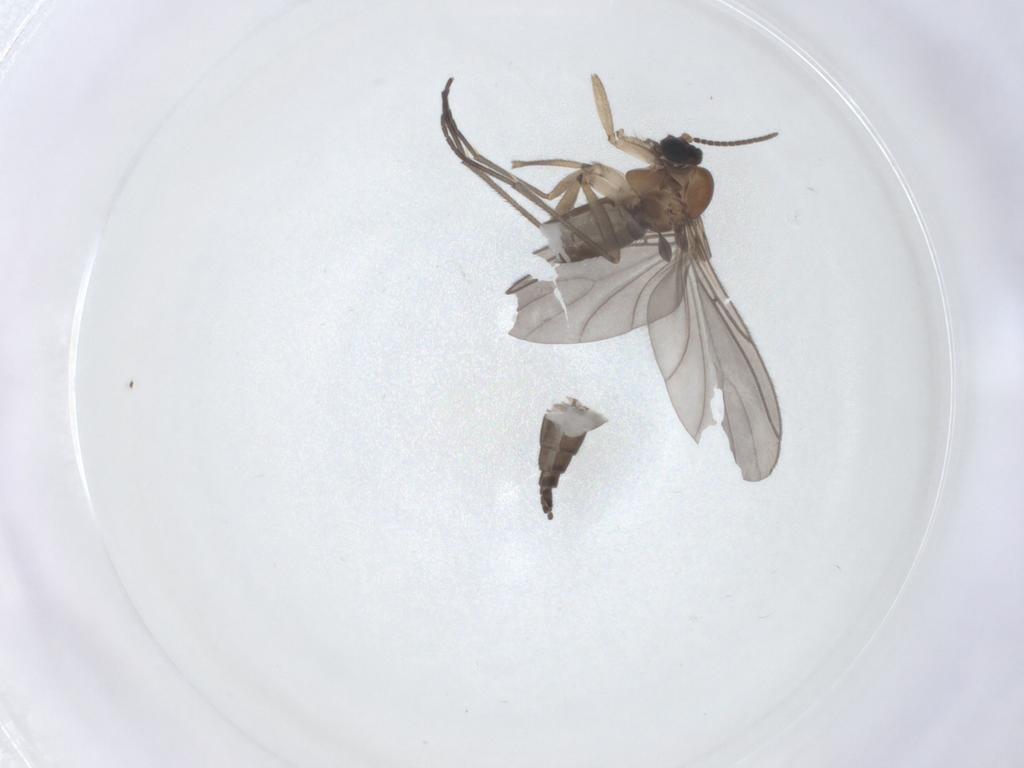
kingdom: Animalia
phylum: Arthropoda
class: Insecta
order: Diptera
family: Sciaridae
